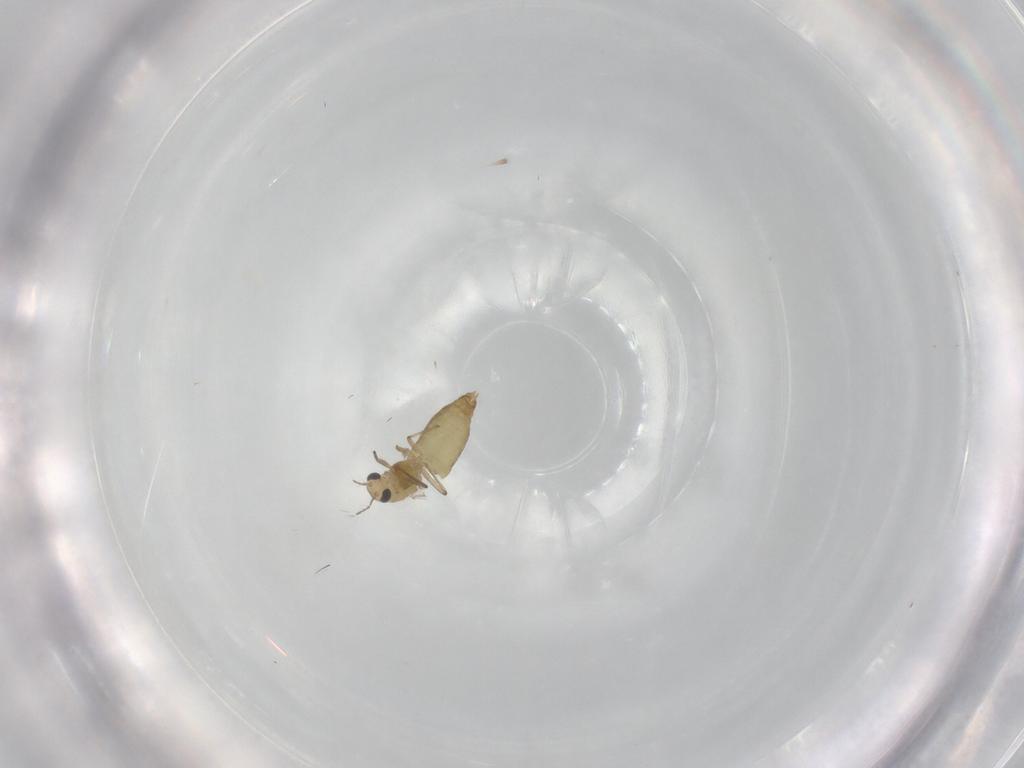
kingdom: Animalia
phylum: Arthropoda
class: Insecta
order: Diptera
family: Chironomidae
